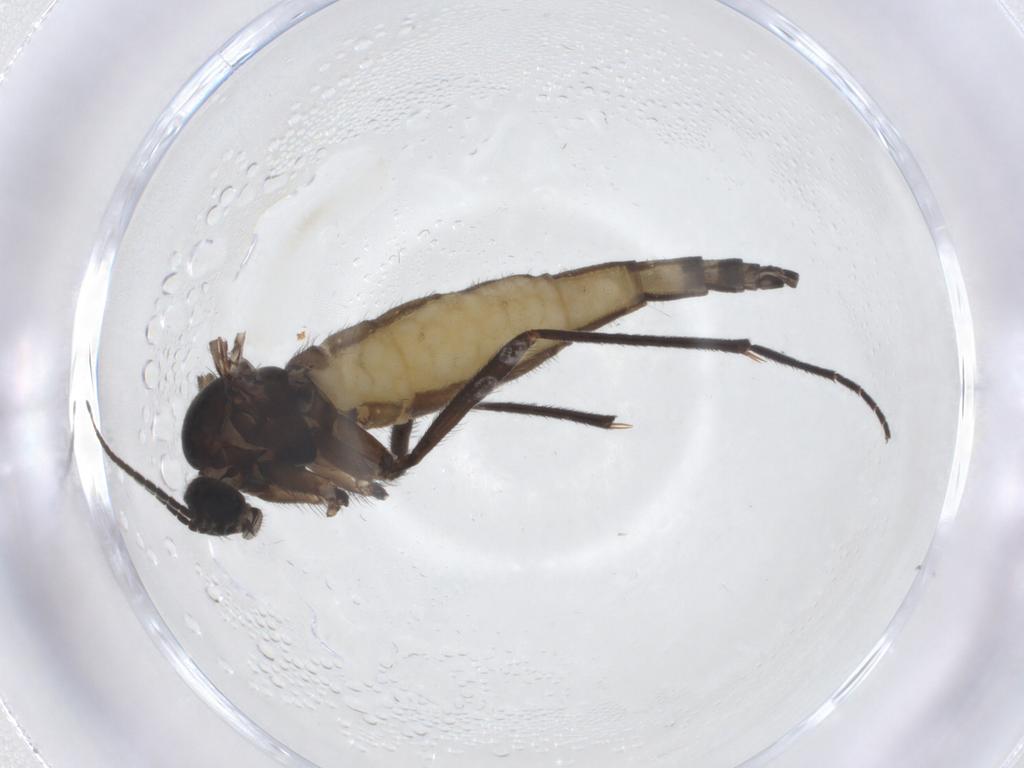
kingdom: Animalia
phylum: Arthropoda
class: Insecta
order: Diptera
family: Sciaridae
